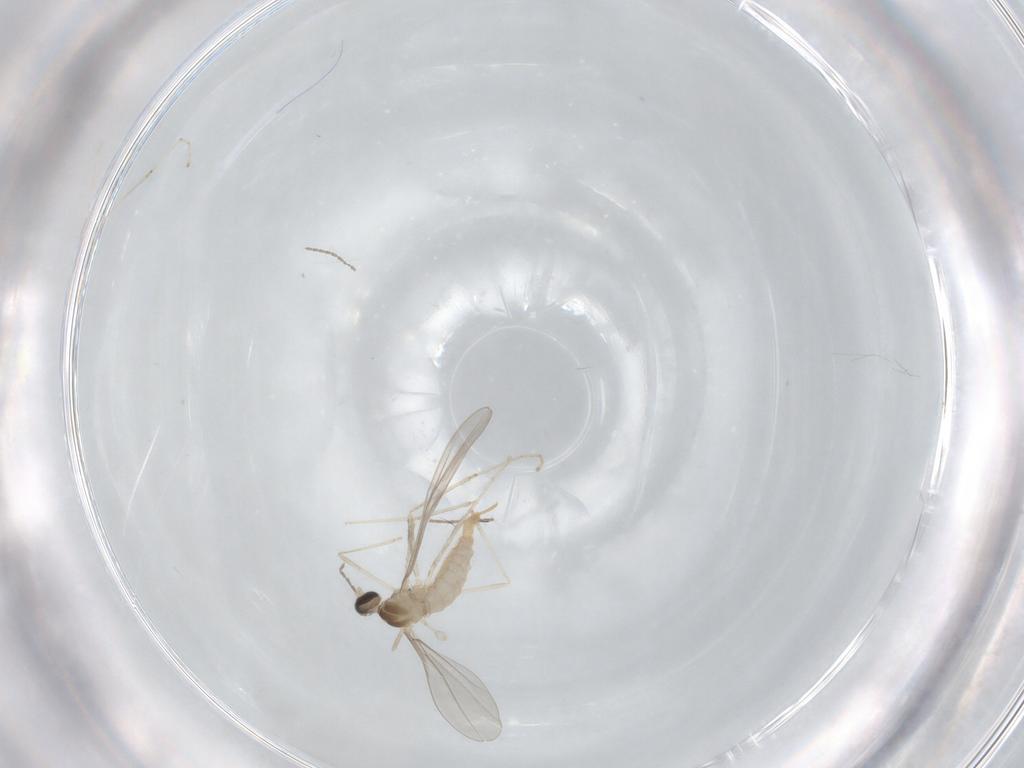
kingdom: Animalia
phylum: Arthropoda
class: Insecta
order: Diptera
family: Chironomidae
